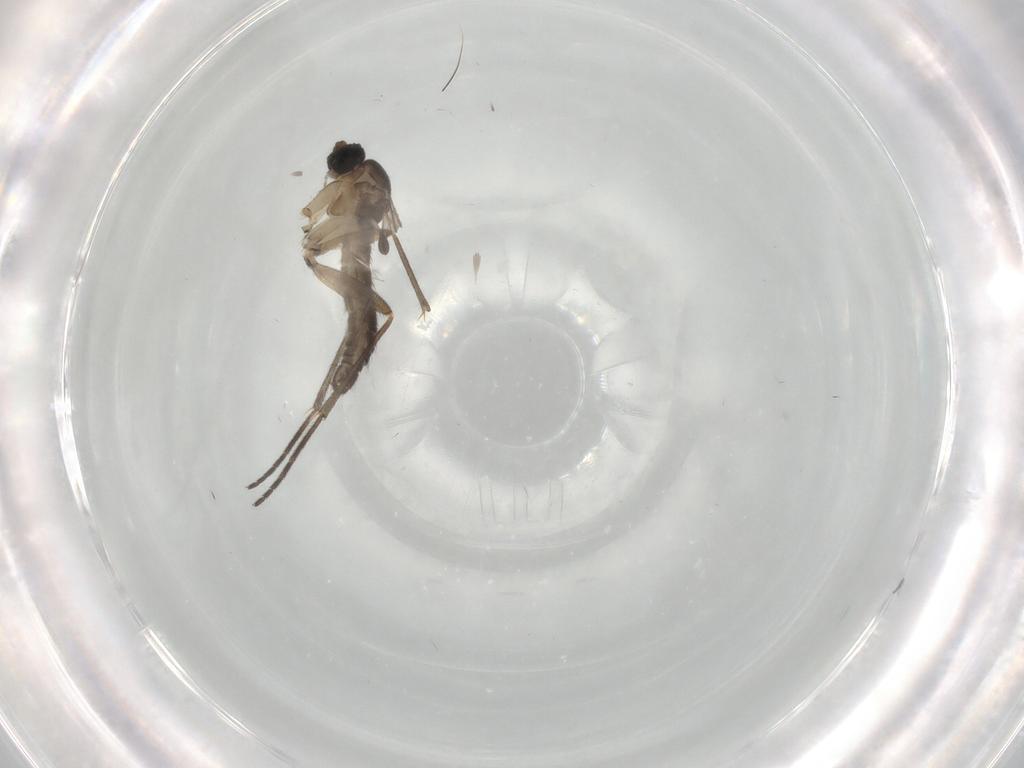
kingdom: Animalia
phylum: Arthropoda
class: Insecta
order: Diptera
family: Sciaridae
